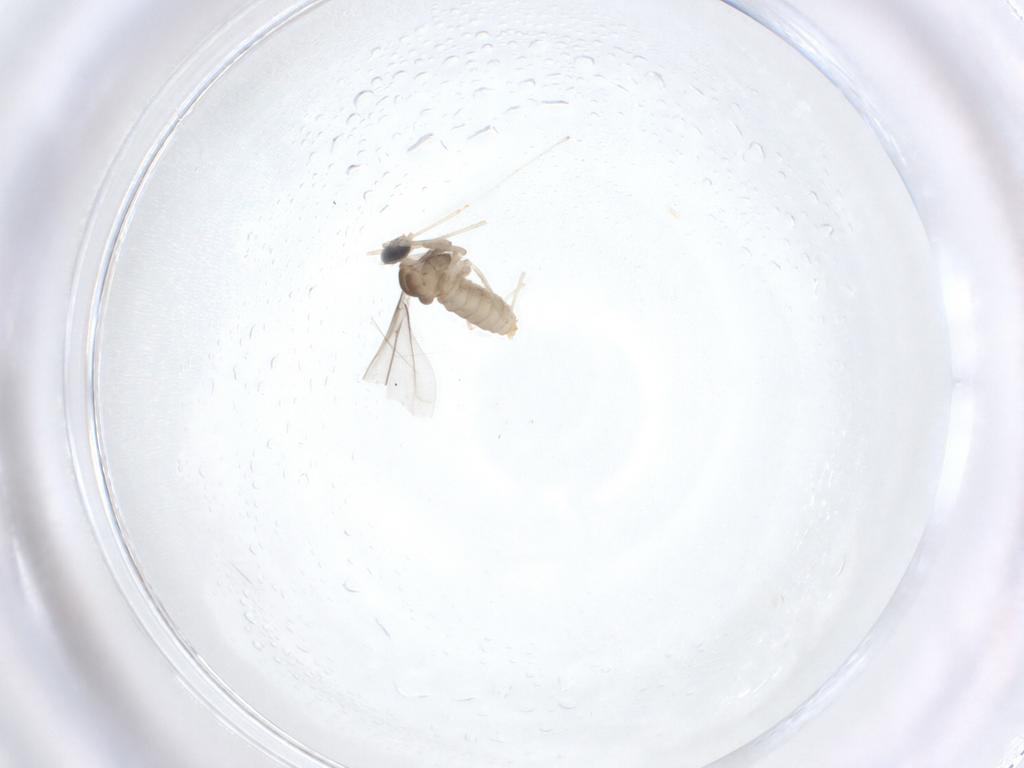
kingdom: Animalia
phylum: Arthropoda
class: Insecta
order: Diptera
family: Cecidomyiidae
